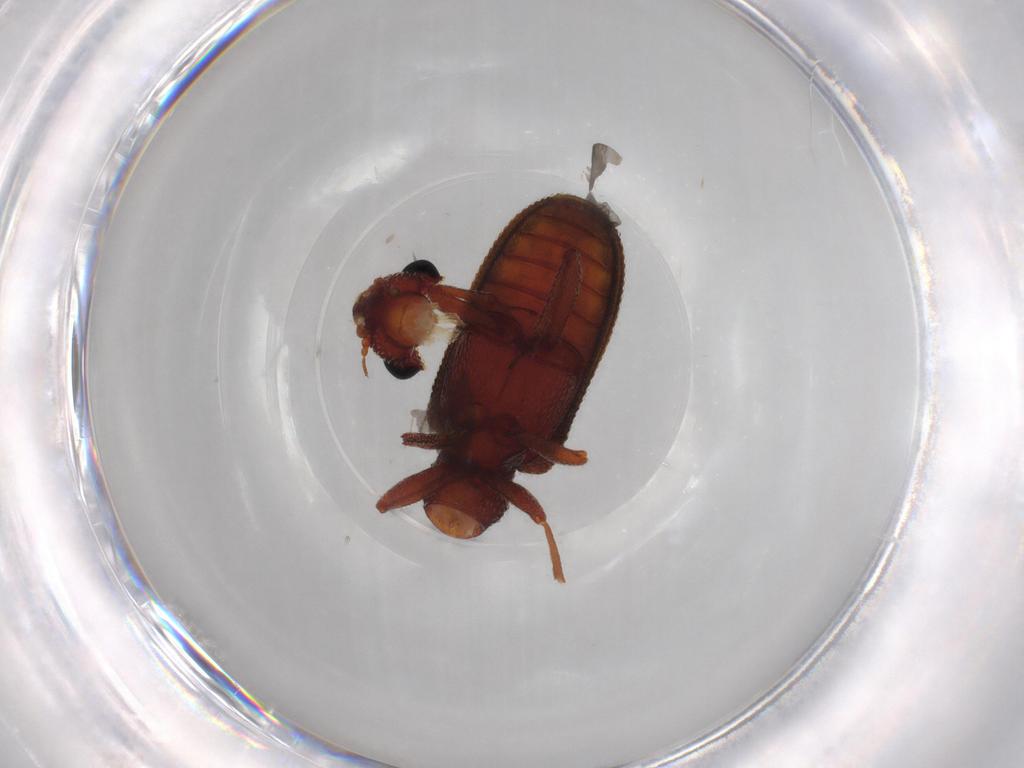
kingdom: Animalia
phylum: Arthropoda
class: Insecta
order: Coleoptera
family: Zopheridae
